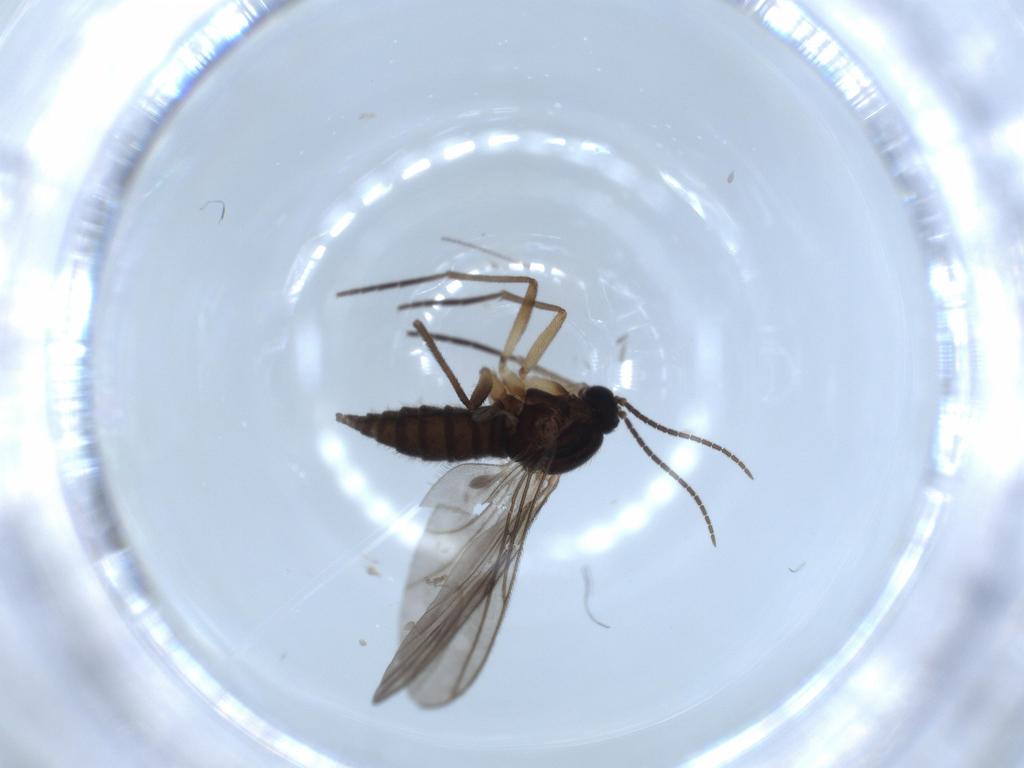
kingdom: Animalia
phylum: Arthropoda
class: Insecta
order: Diptera
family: Sciaridae
